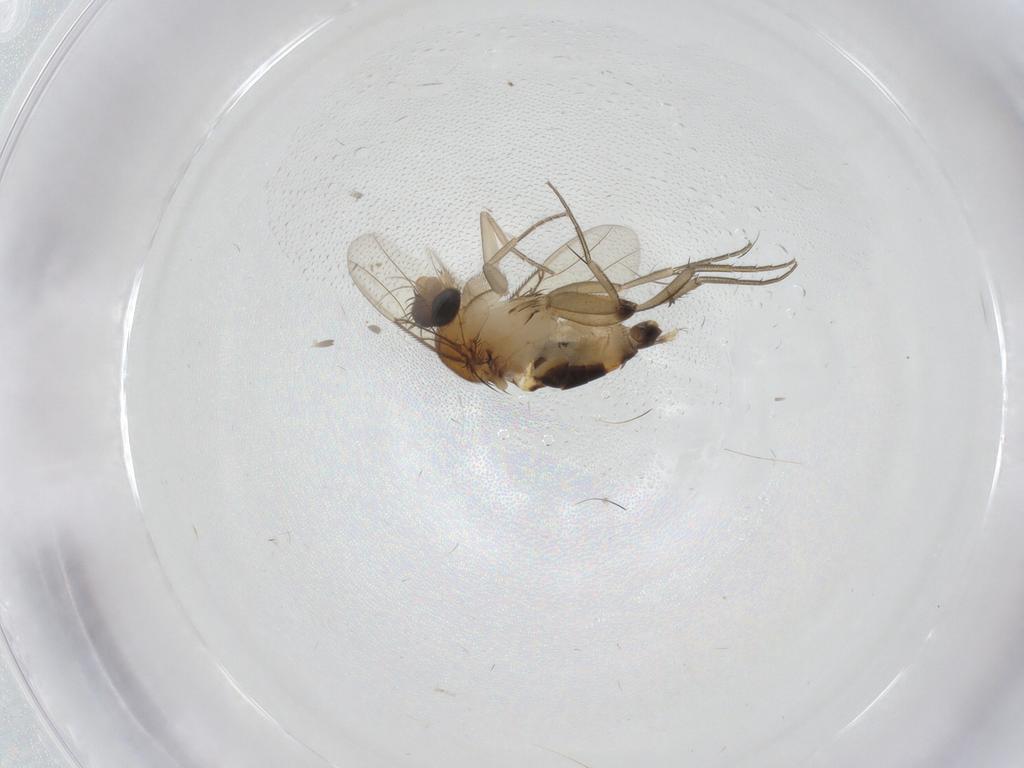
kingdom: Animalia
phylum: Arthropoda
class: Insecta
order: Diptera
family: Phoridae
